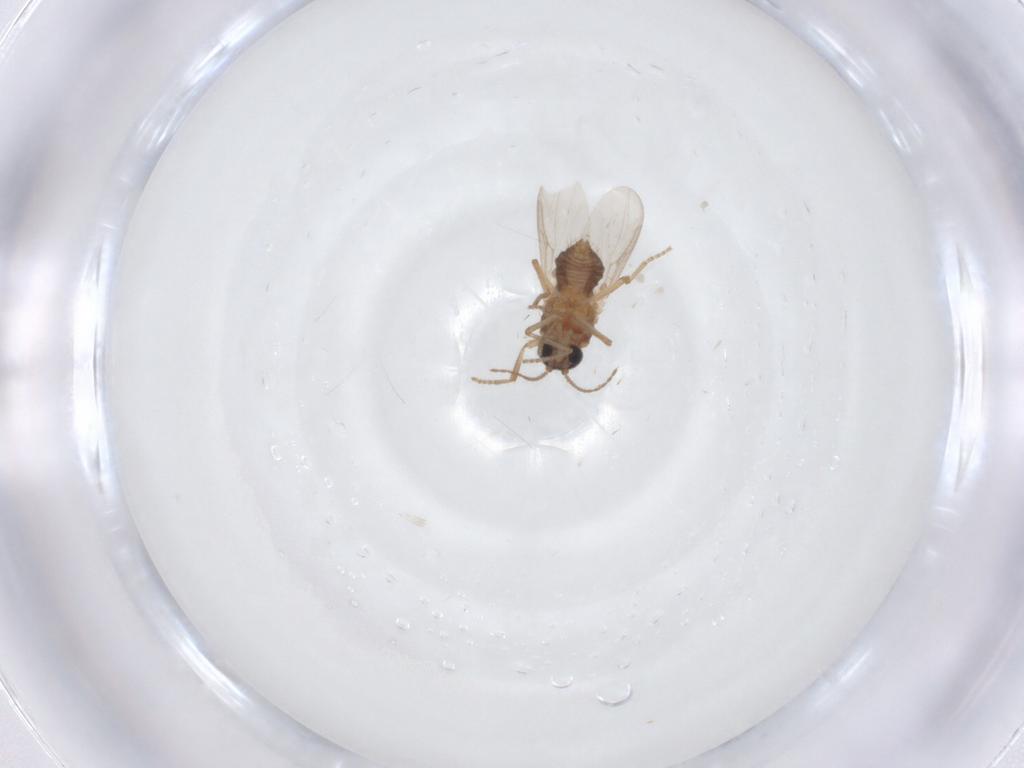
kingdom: Animalia
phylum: Arthropoda
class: Insecta
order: Diptera
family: Ceratopogonidae
